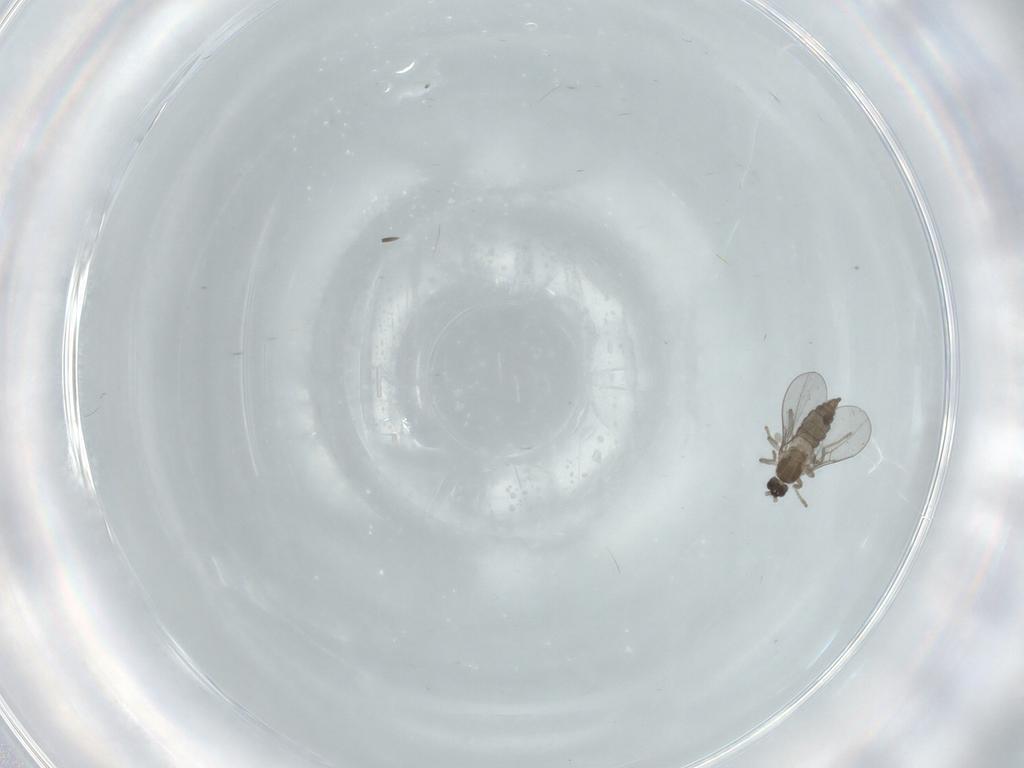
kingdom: Animalia
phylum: Arthropoda
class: Insecta
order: Diptera
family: Cecidomyiidae
